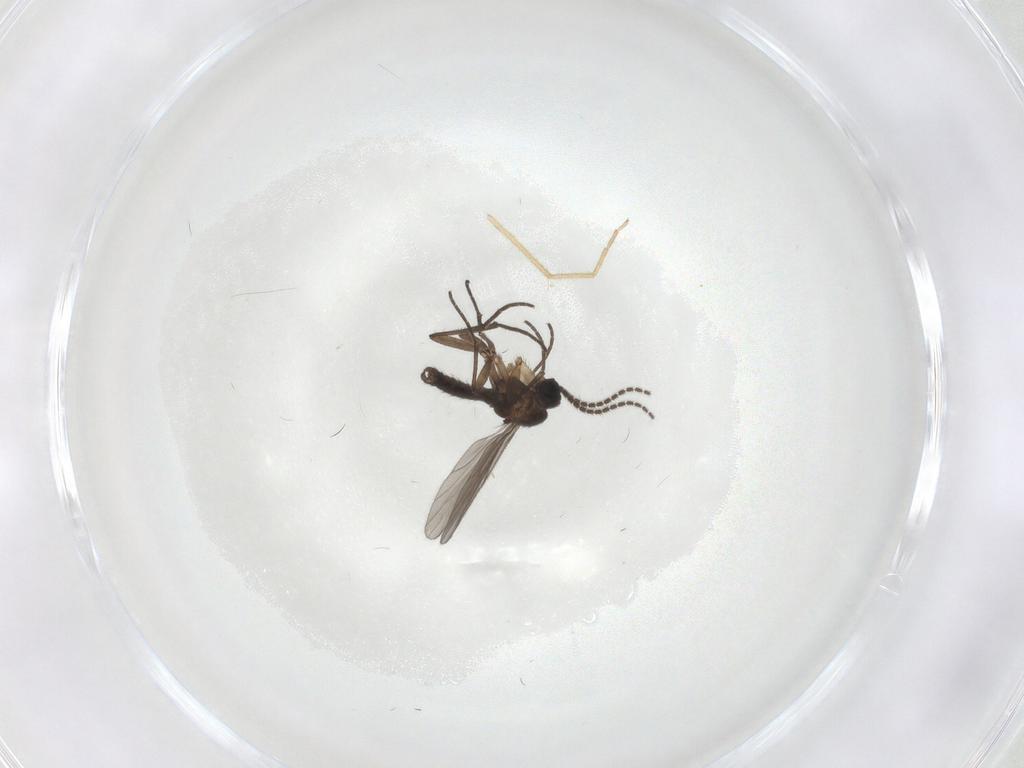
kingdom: Animalia
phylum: Arthropoda
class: Insecta
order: Diptera
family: Sciaridae
